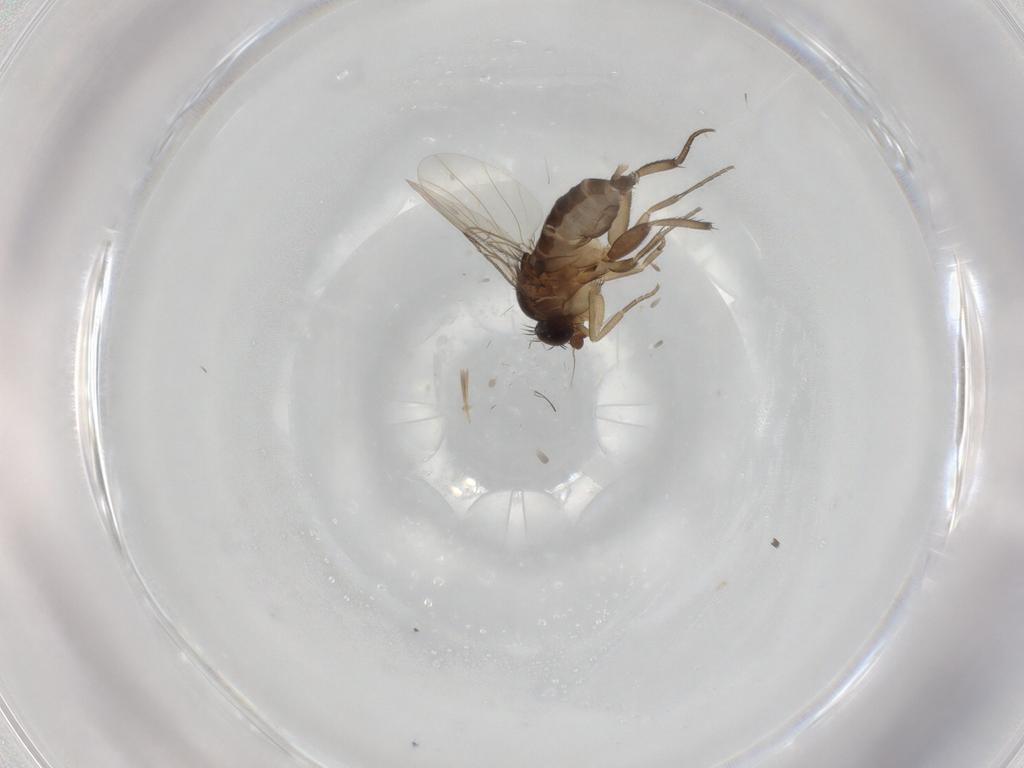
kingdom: Animalia
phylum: Arthropoda
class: Insecta
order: Diptera
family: Phoridae
